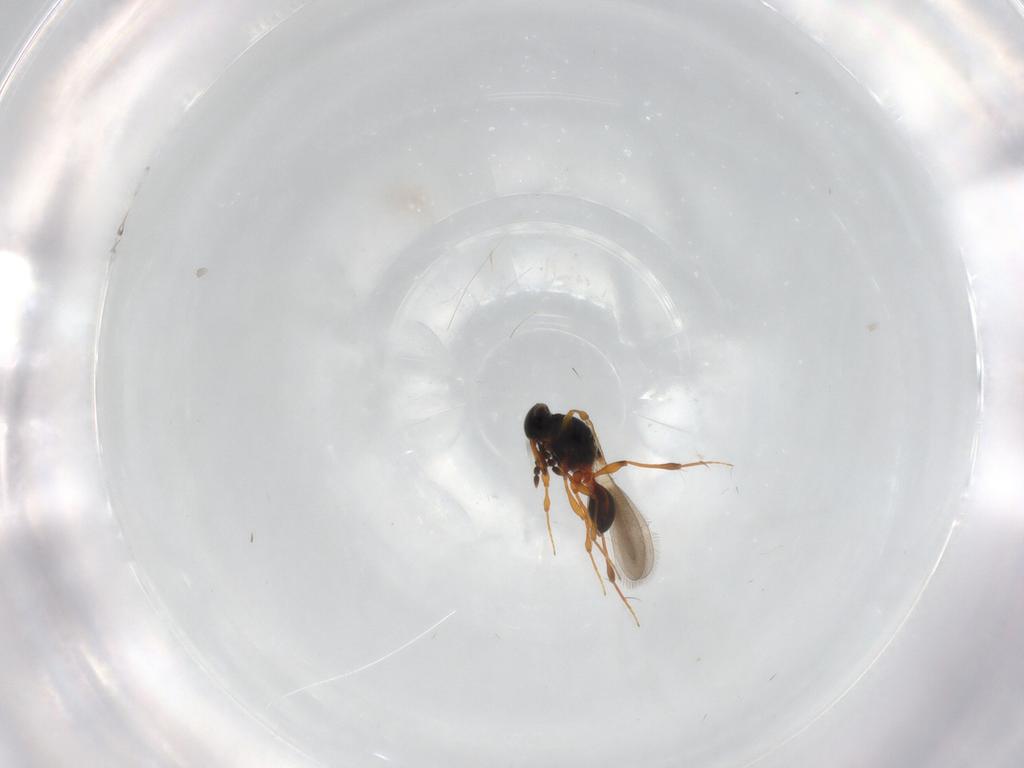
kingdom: Animalia
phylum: Arthropoda
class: Insecta
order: Hymenoptera
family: Platygastridae
